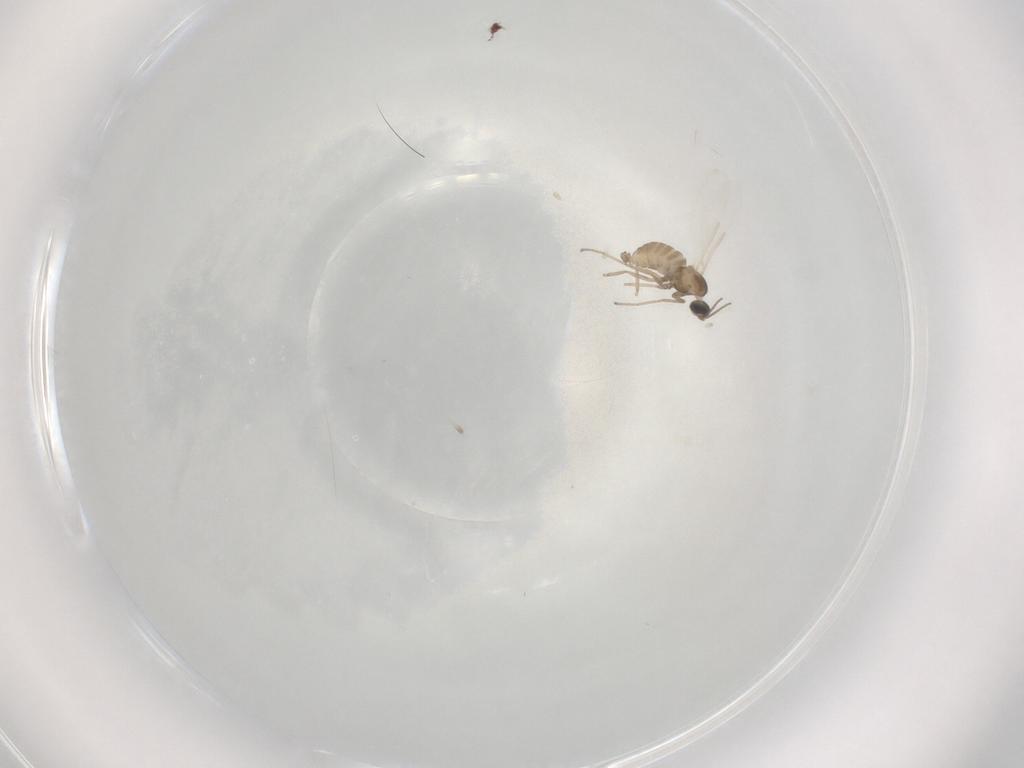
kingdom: Animalia
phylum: Arthropoda
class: Insecta
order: Diptera
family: Cecidomyiidae
